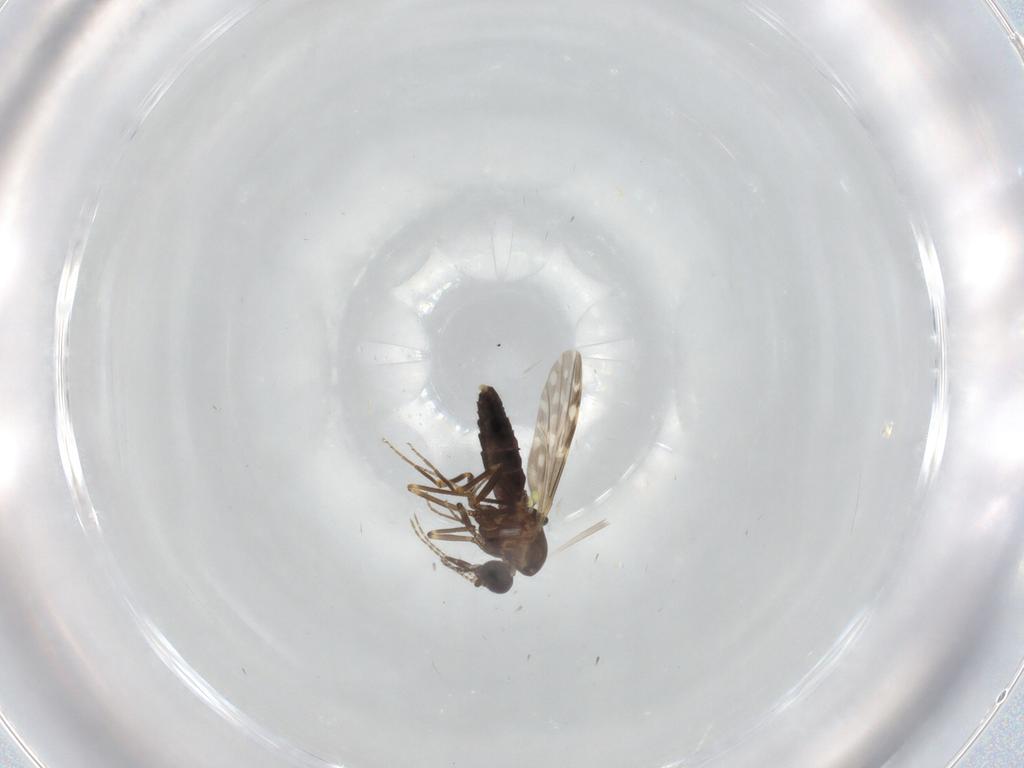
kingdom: Animalia
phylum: Arthropoda
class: Insecta
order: Diptera
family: Ceratopogonidae
